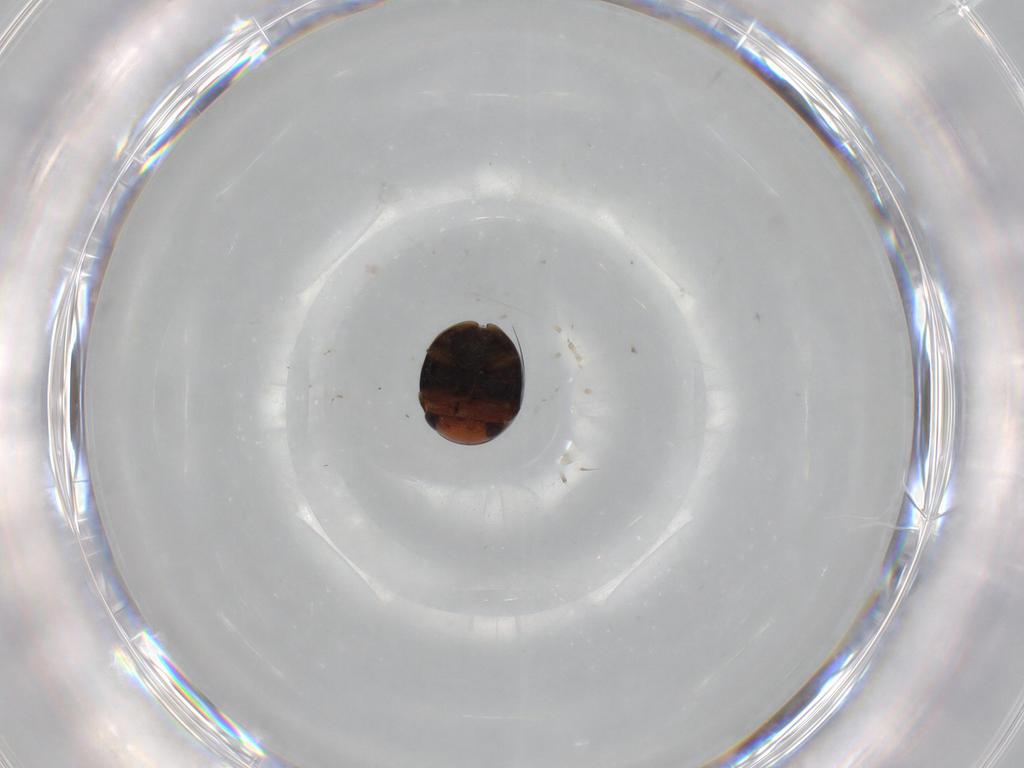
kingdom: Animalia
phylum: Arthropoda
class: Insecta
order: Coleoptera
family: Cybocephalidae
